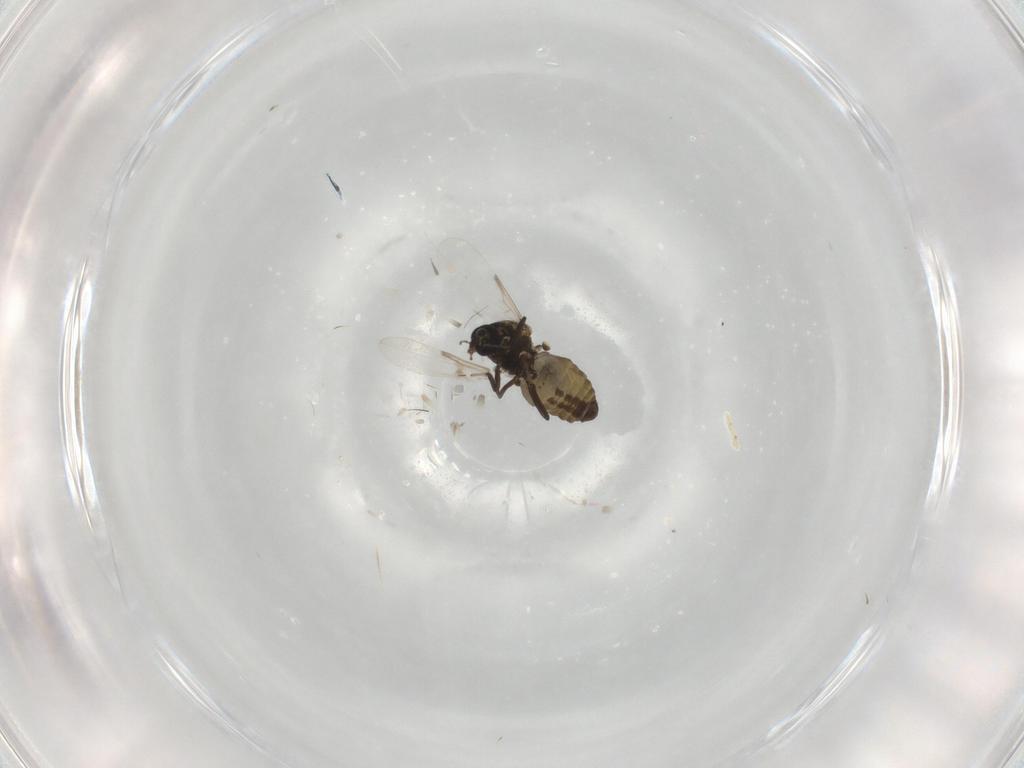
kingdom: Animalia
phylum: Arthropoda
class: Insecta
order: Diptera
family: Ceratopogonidae
